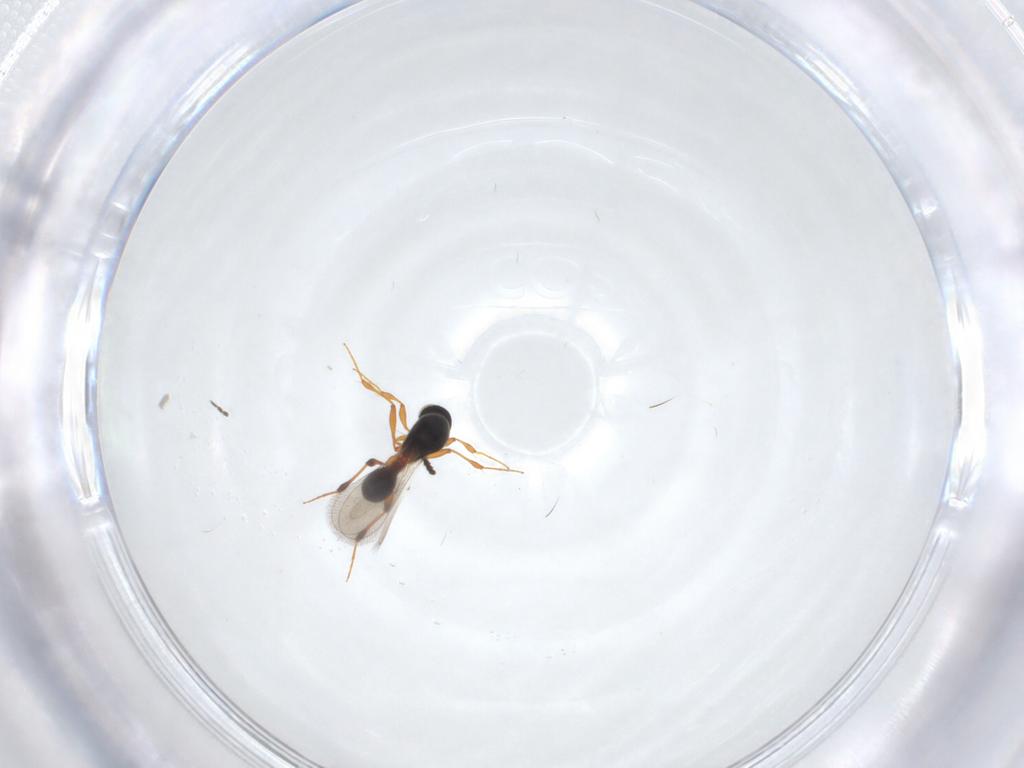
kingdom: Animalia
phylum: Arthropoda
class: Insecta
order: Hymenoptera
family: Platygastridae
